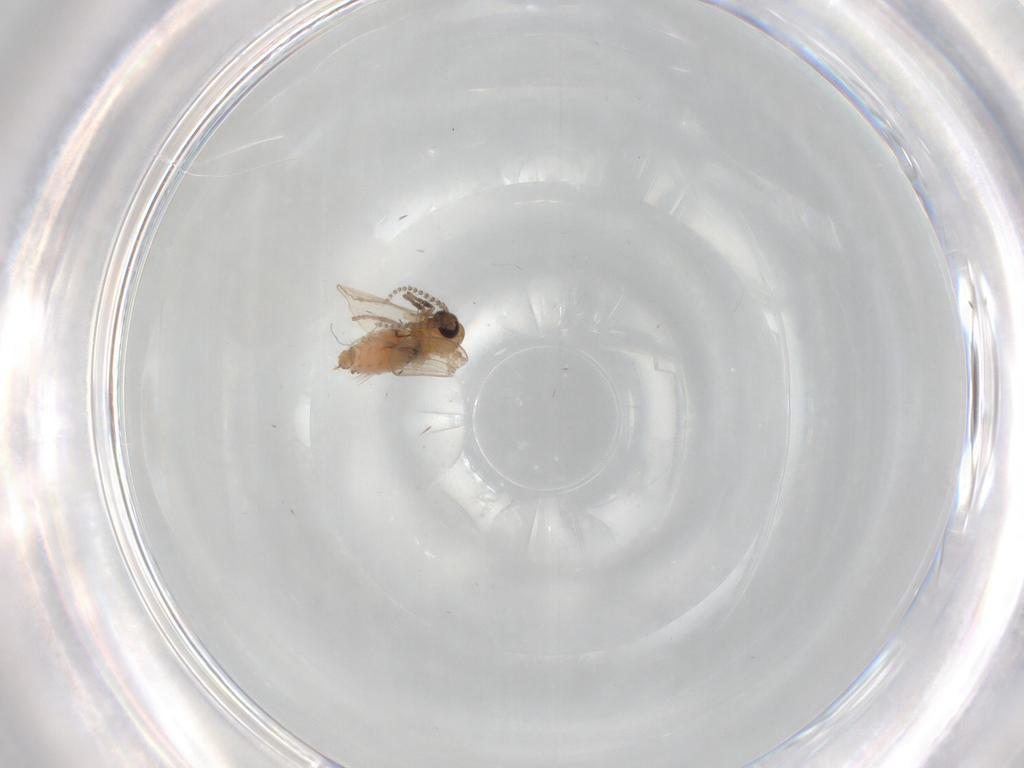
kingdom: Animalia
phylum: Arthropoda
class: Insecta
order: Diptera
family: Psychodidae
